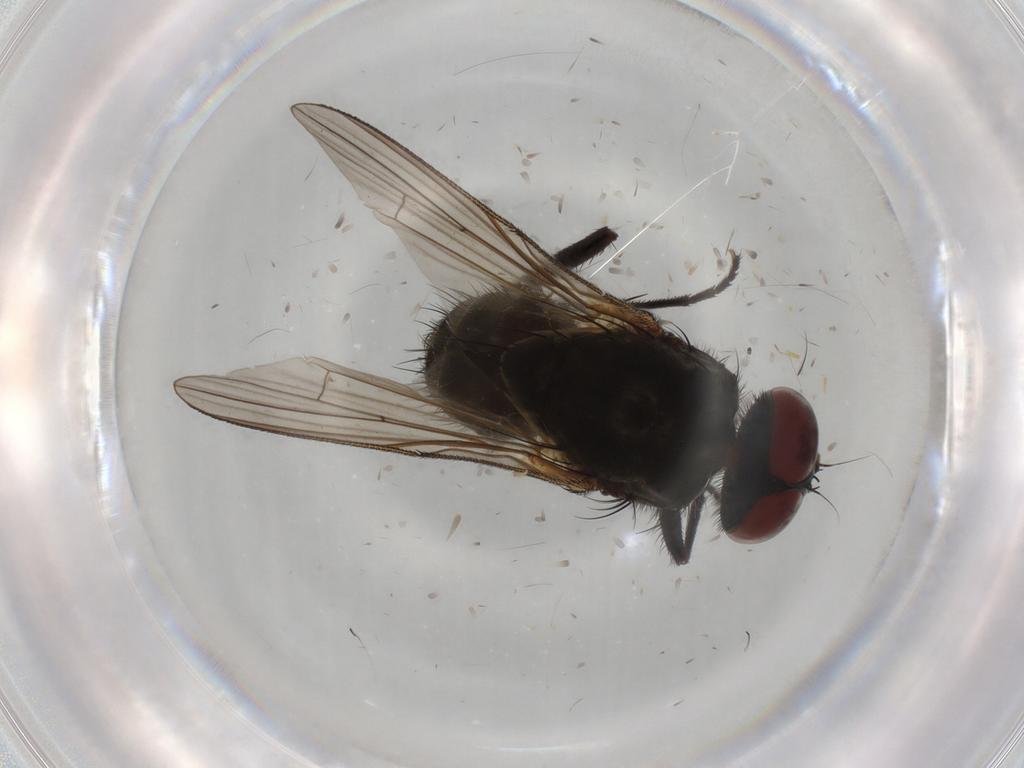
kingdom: Animalia
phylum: Arthropoda
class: Insecta
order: Diptera
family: Muscidae
